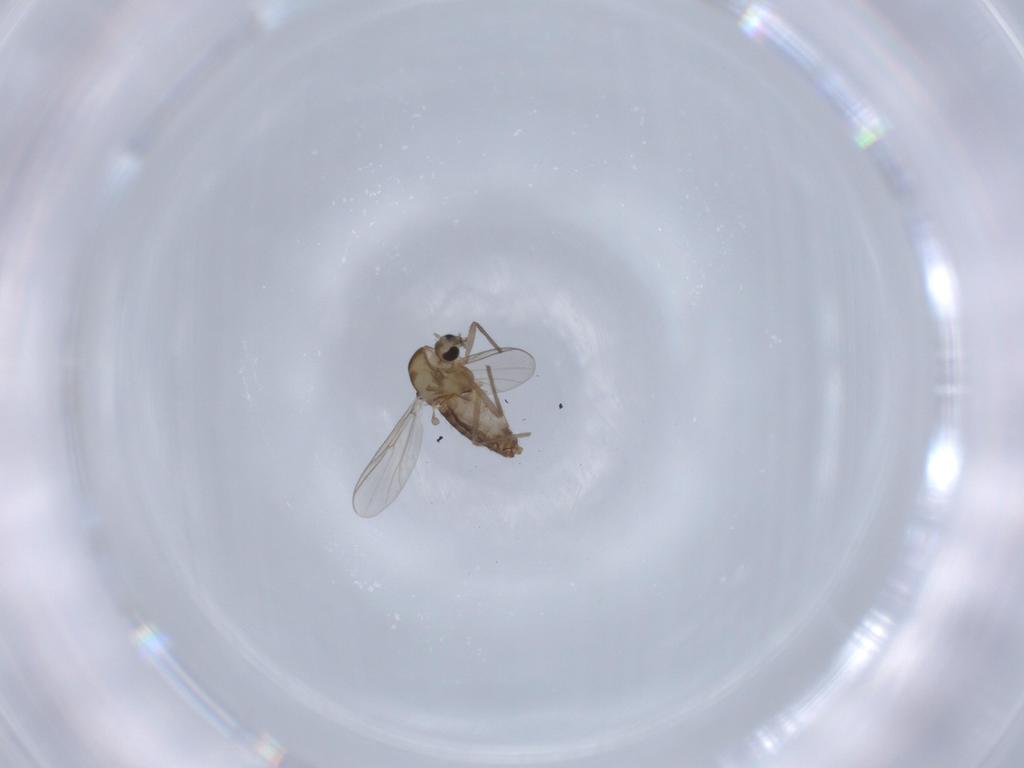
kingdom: Animalia
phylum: Arthropoda
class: Insecta
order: Diptera
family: Chironomidae
